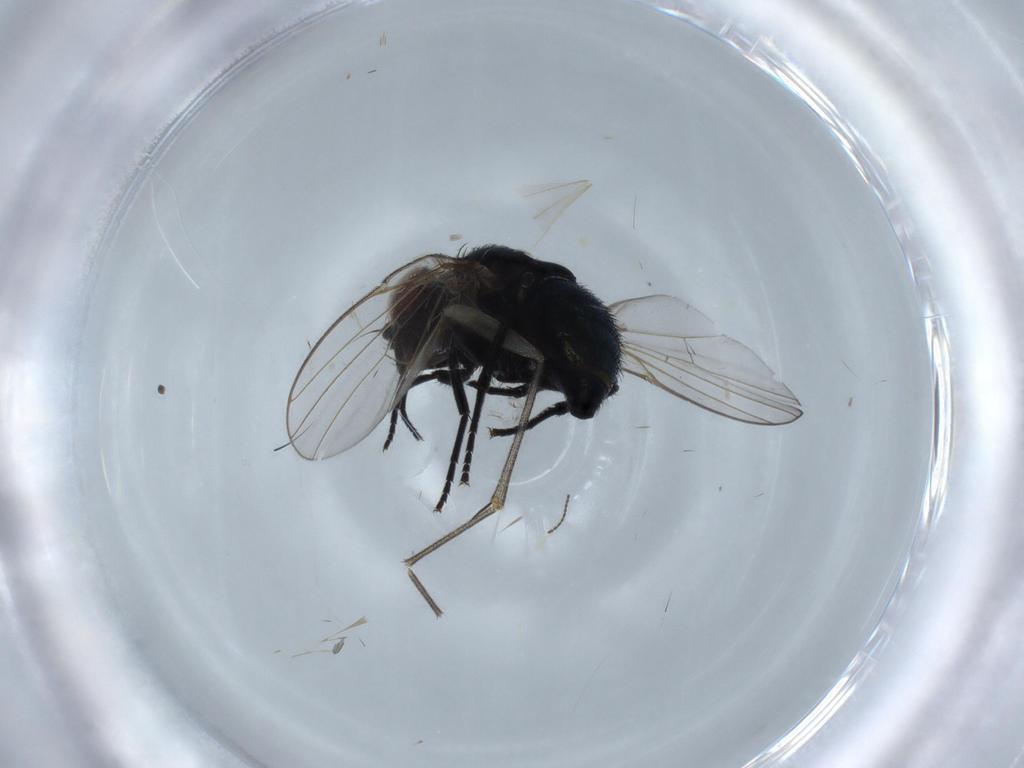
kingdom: Animalia
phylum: Arthropoda
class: Insecta
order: Diptera
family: Agromyzidae
